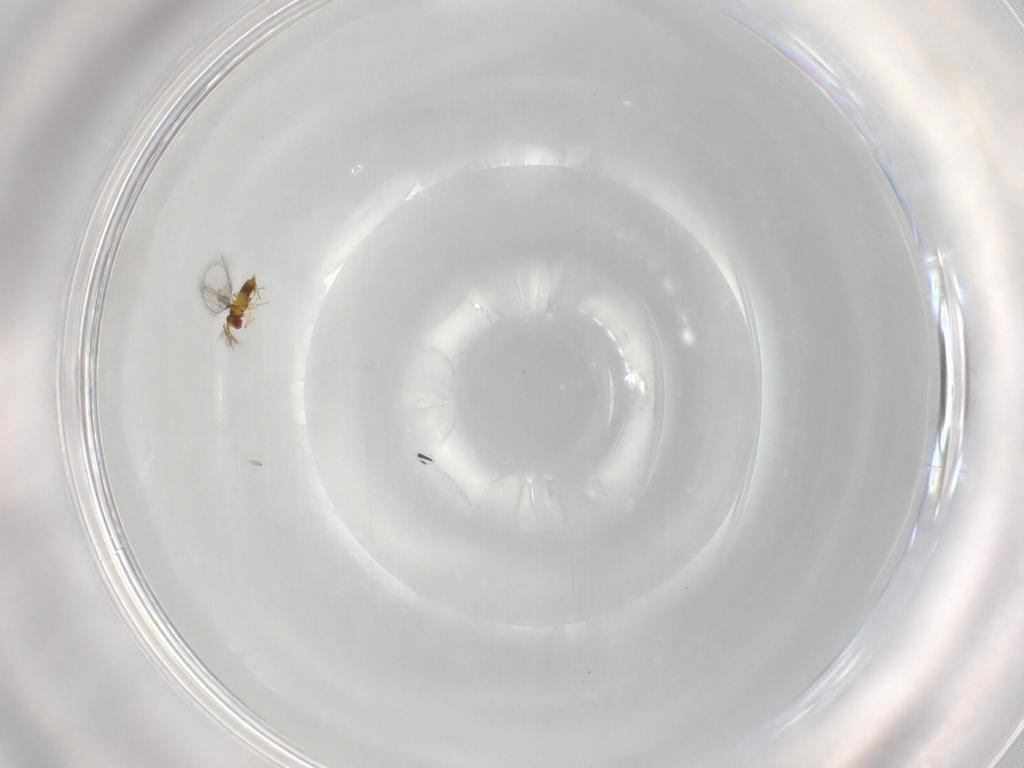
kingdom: Animalia
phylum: Arthropoda
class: Insecta
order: Hymenoptera
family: Trichogrammatidae
